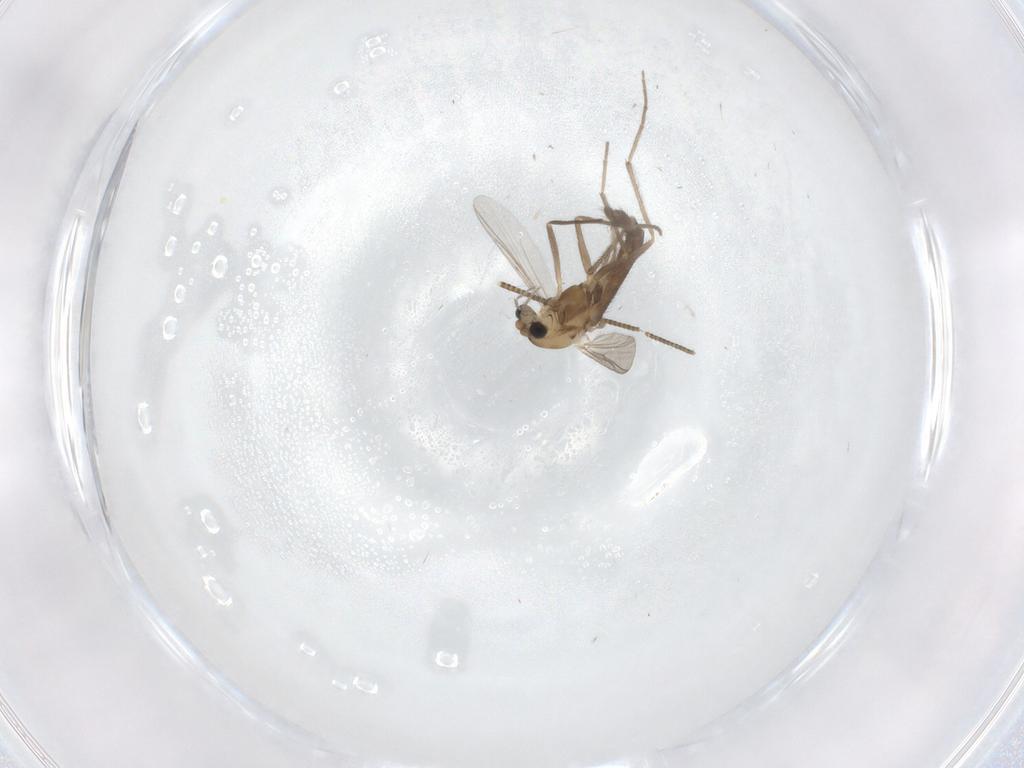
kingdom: Animalia
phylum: Arthropoda
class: Insecta
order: Diptera
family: Chironomidae
